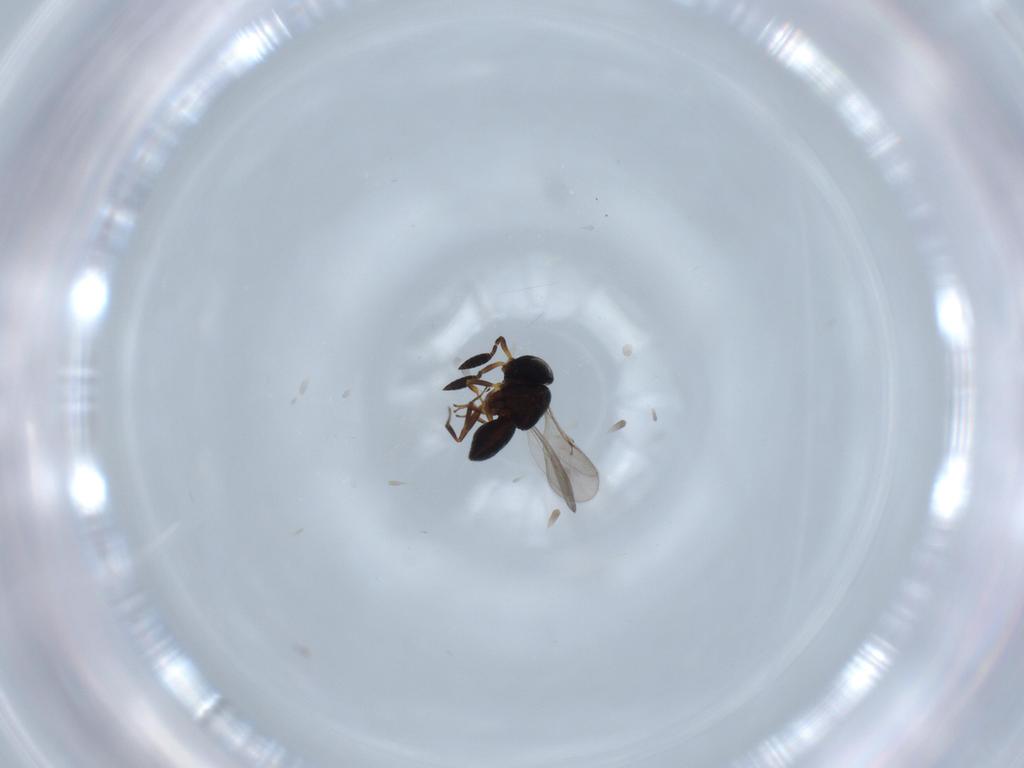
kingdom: Animalia
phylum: Arthropoda
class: Insecta
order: Hymenoptera
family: Scelionidae
